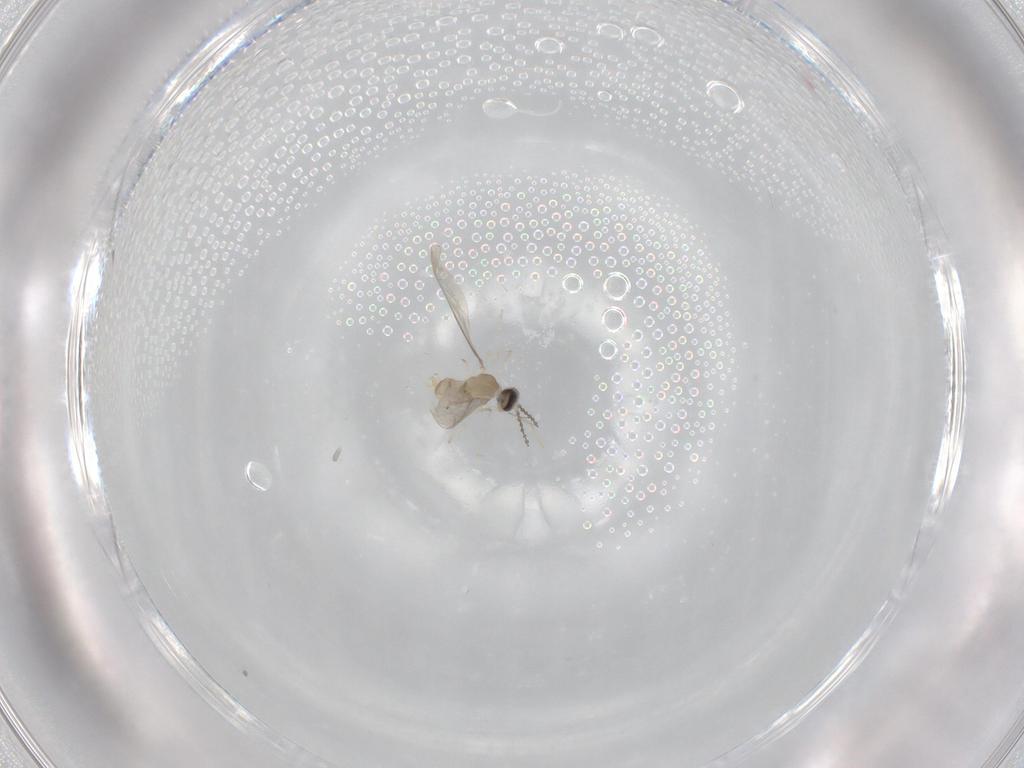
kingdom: Animalia
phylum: Arthropoda
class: Insecta
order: Diptera
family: Cecidomyiidae
